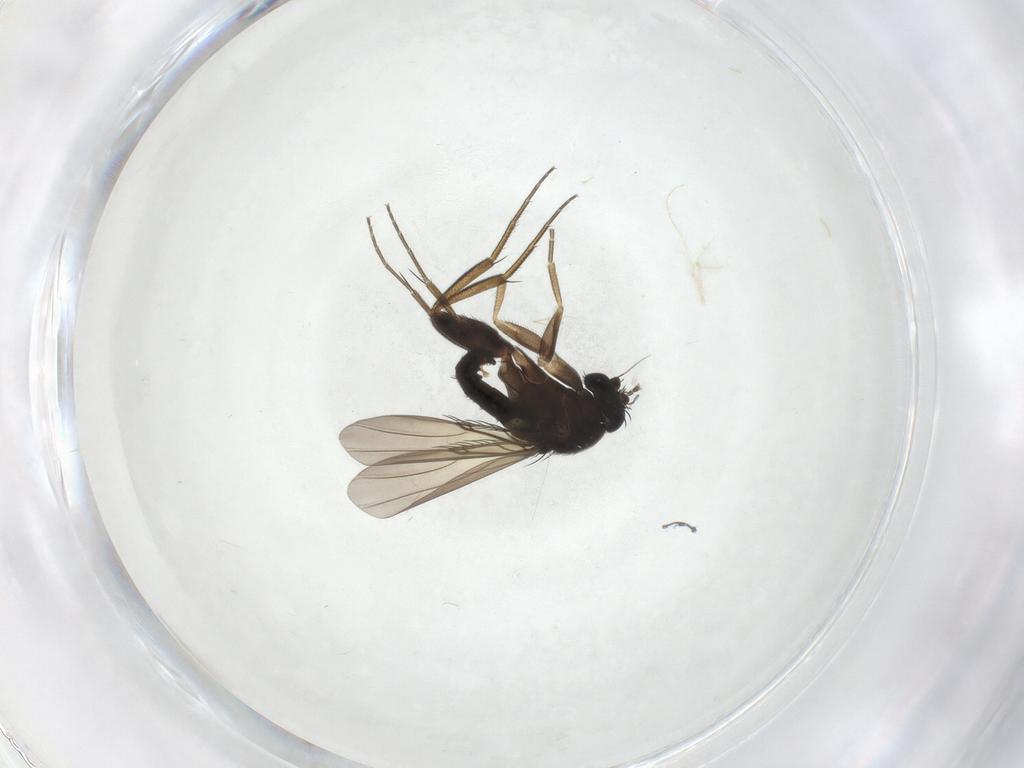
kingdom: Animalia
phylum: Arthropoda
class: Insecta
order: Diptera
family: Phoridae
